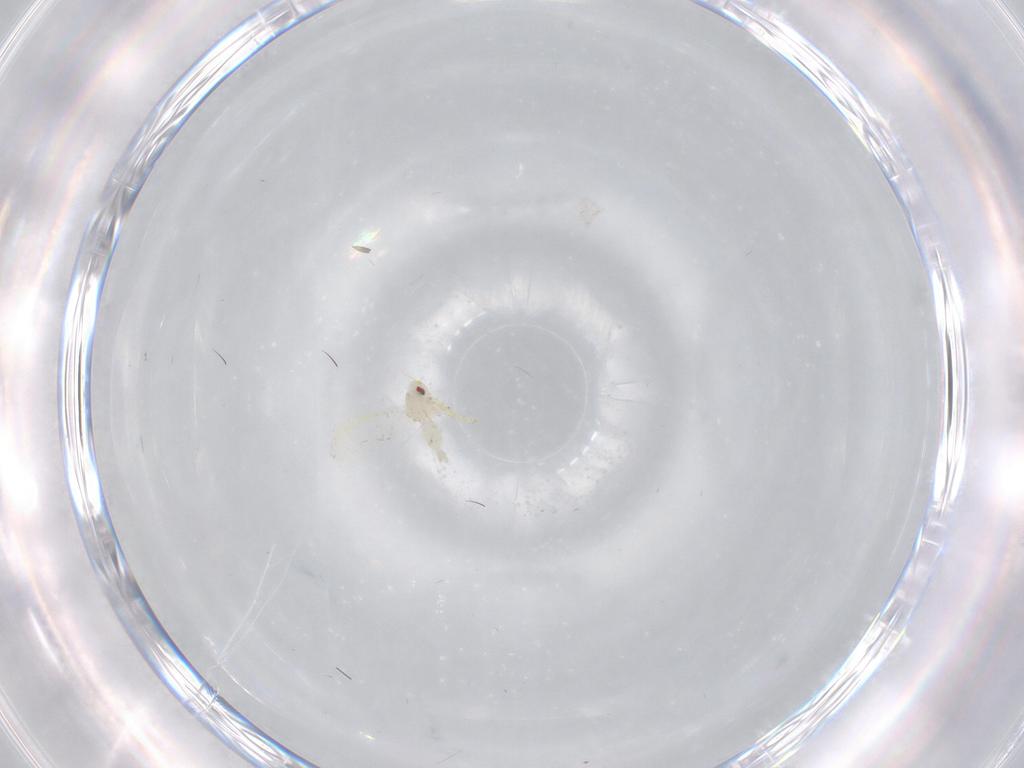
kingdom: Animalia
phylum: Arthropoda
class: Insecta
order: Hemiptera
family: Aleyrodidae
